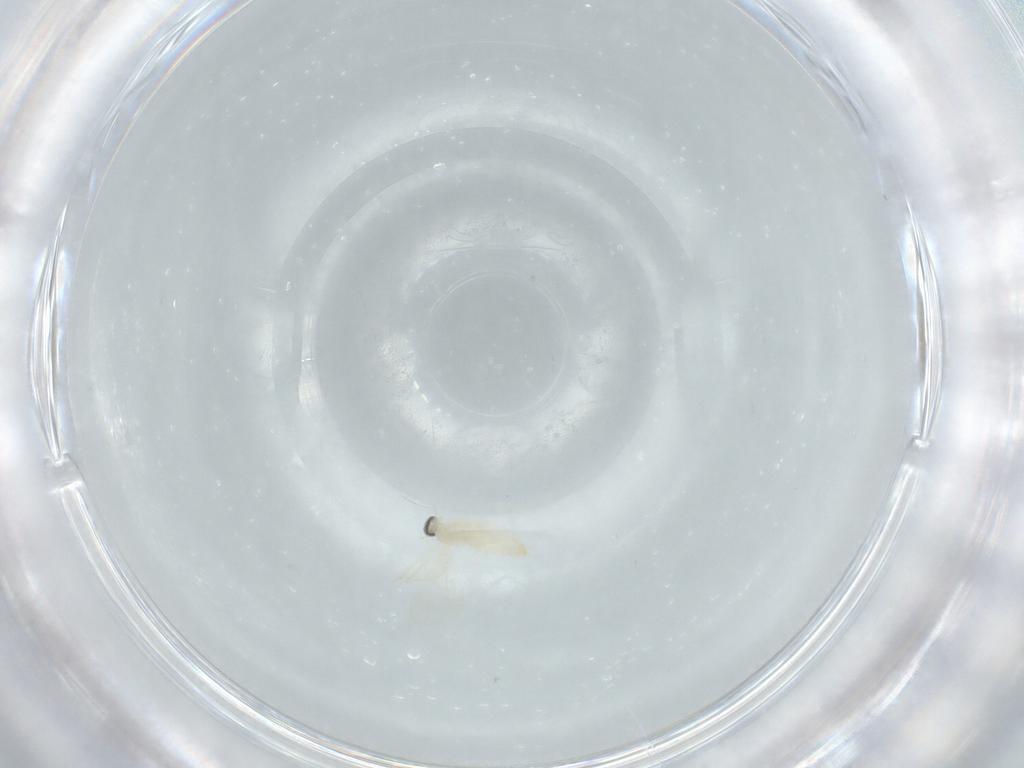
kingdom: Animalia
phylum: Arthropoda
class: Insecta
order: Diptera
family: Cecidomyiidae
